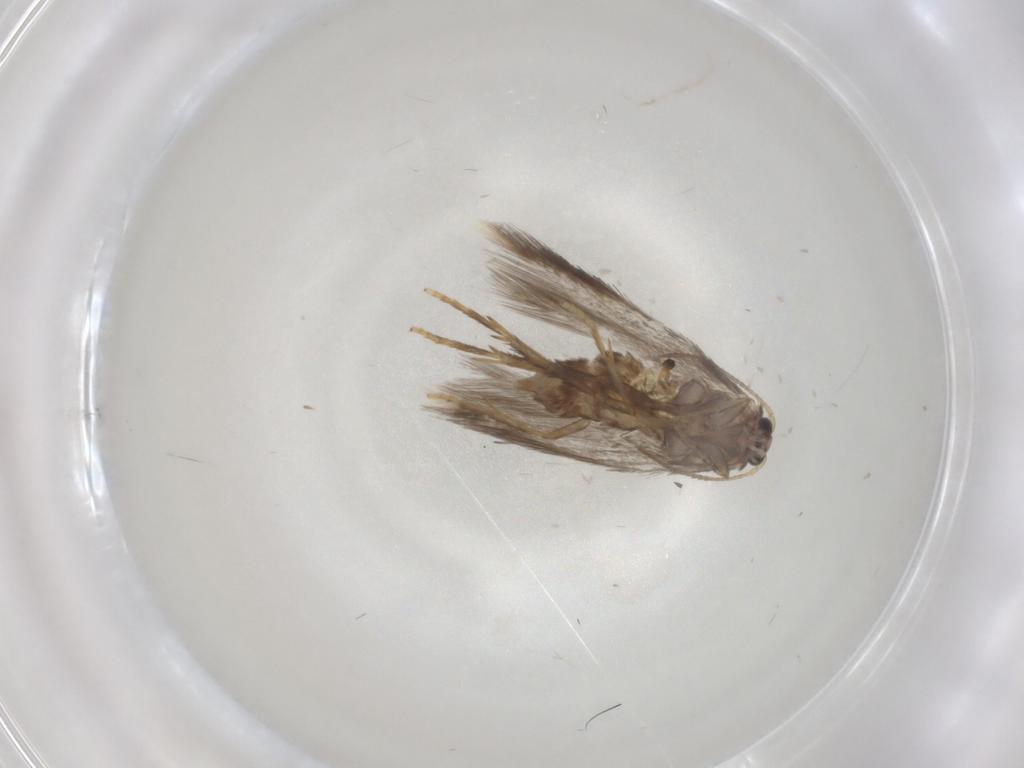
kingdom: Animalia
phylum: Arthropoda
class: Insecta
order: Lepidoptera
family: Nepticulidae
